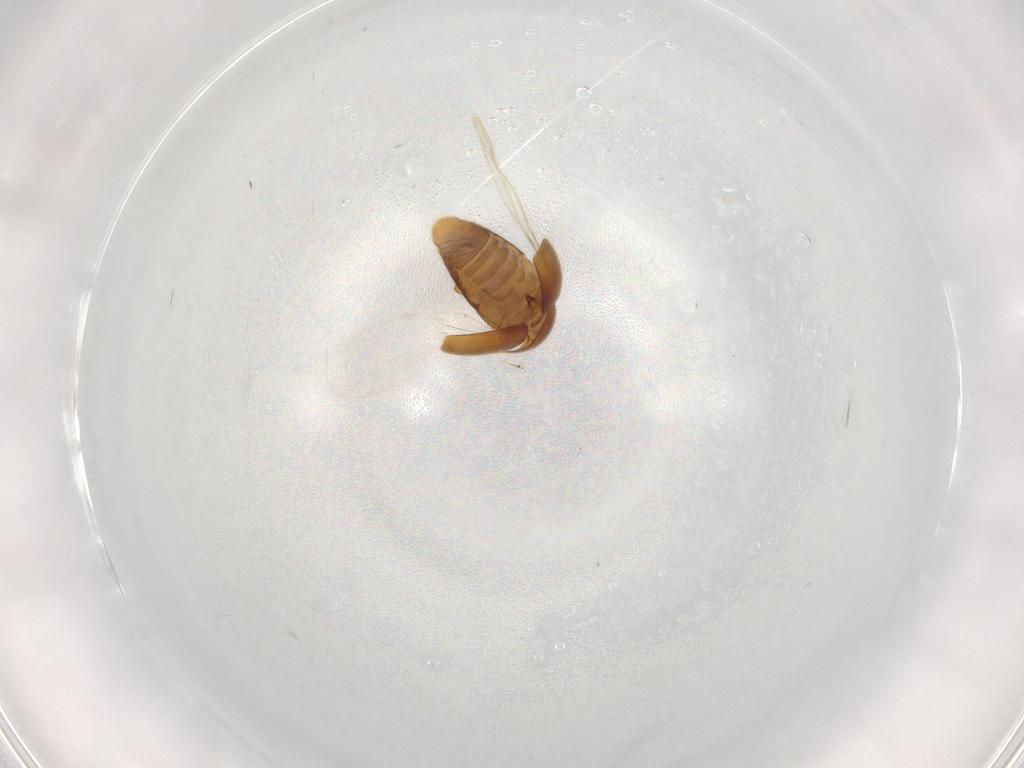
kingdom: Animalia
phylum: Arthropoda
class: Insecta
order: Coleoptera
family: Corylophidae
